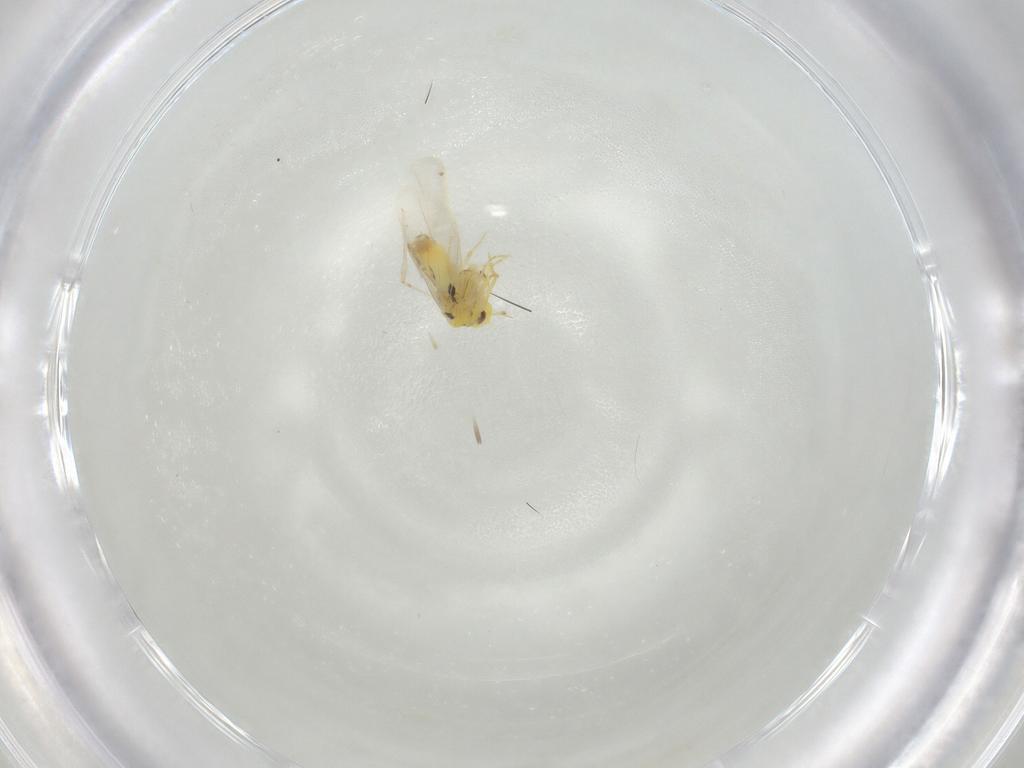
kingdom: Animalia
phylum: Arthropoda
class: Insecta
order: Hemiptera
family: Aleyrodidae
